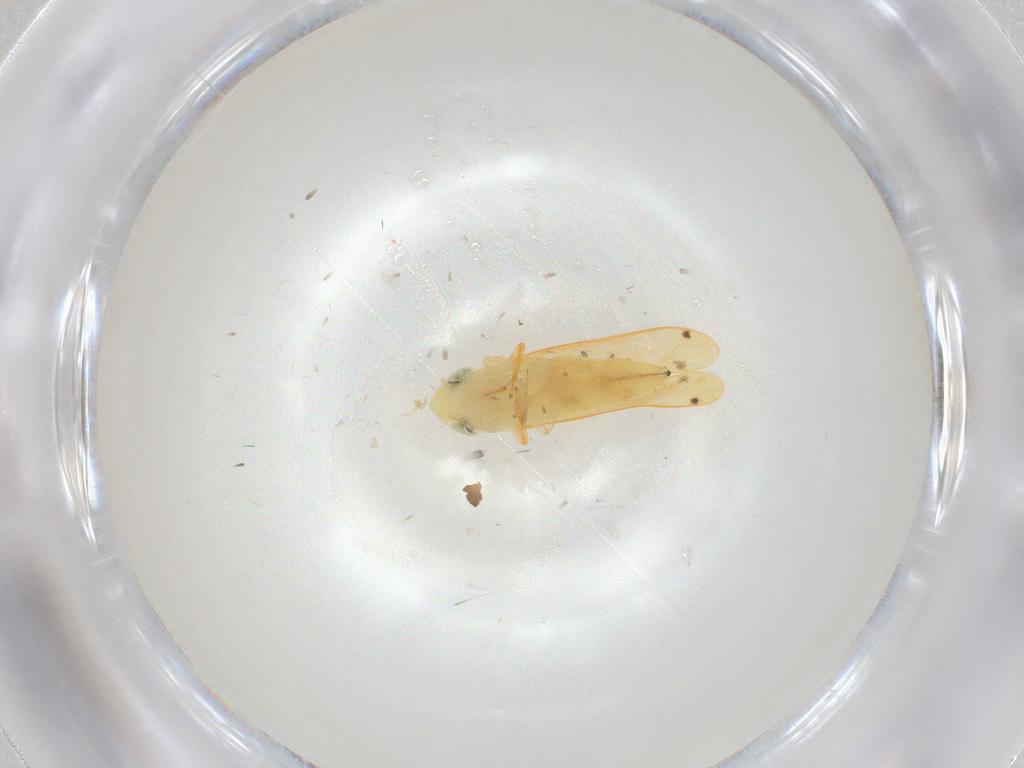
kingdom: Animalia
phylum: Arthropoda
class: Insecta
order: Hemiptera
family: Cicadellidae
